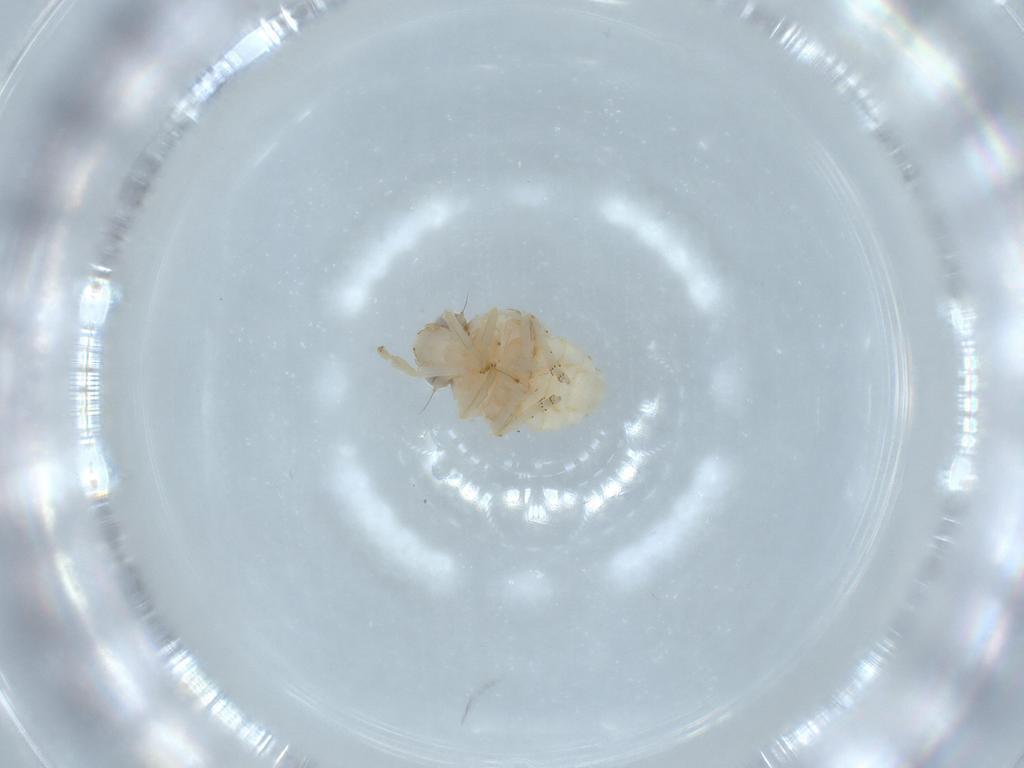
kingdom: Animalia
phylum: Arthropoda
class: Insecta
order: Hemiptera
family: Nogodinidae
